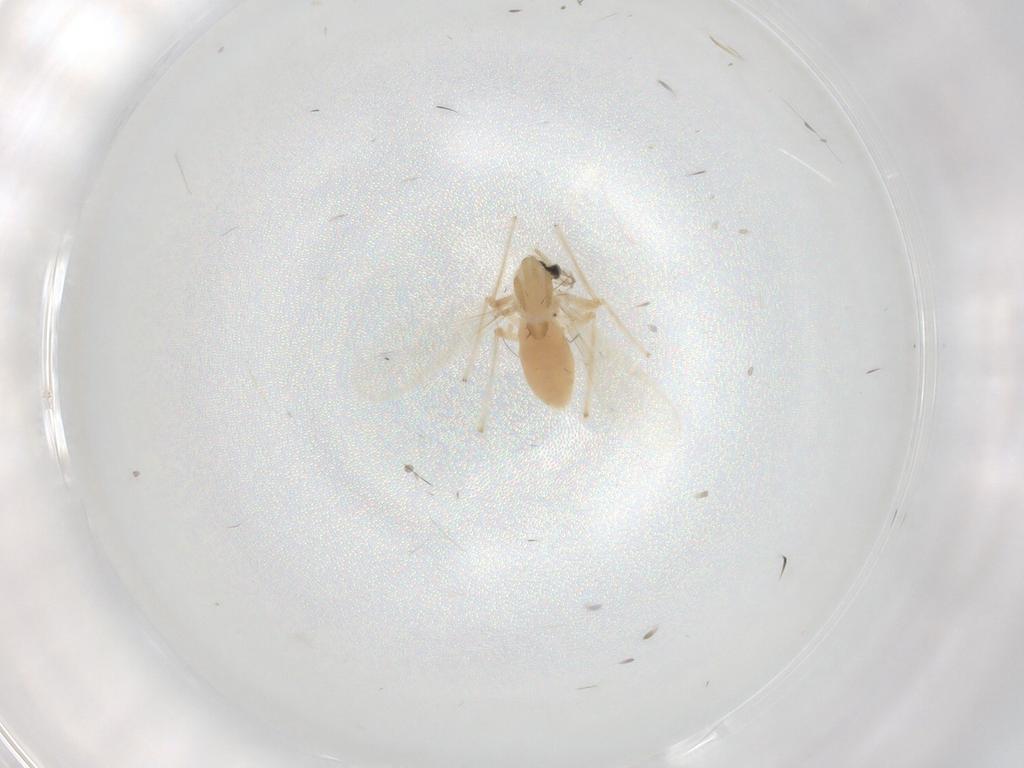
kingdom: Animalia
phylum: Arthropoda
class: Insecta
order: Diptera
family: Chironomidae
